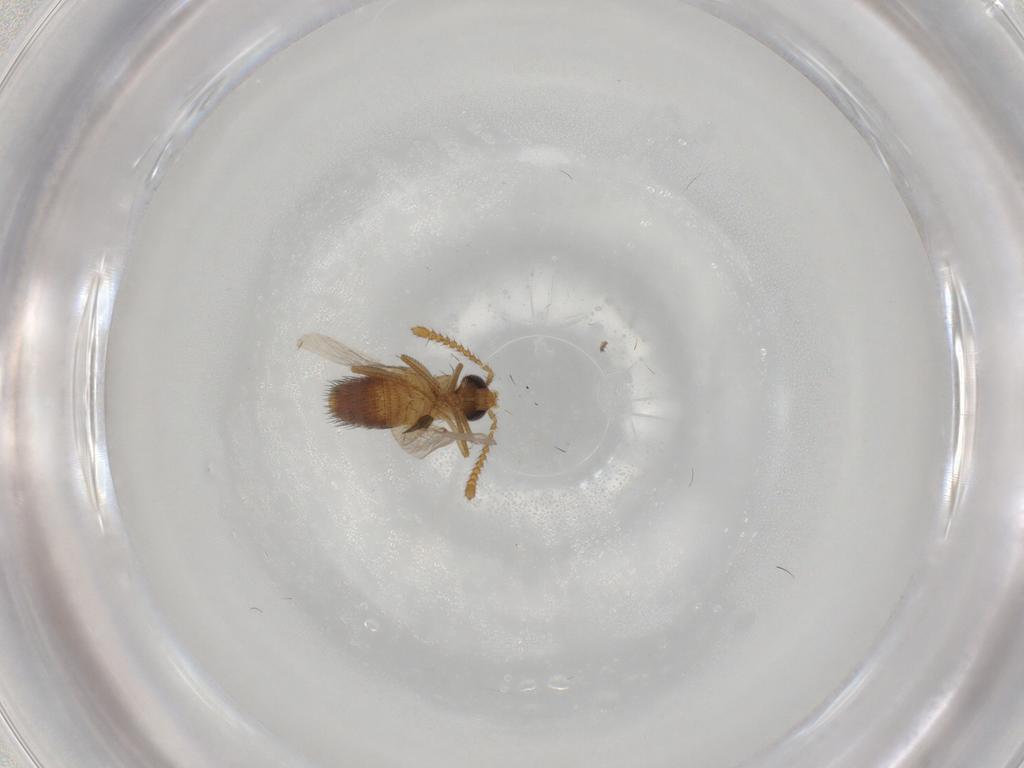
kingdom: Animalia
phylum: Arthropoda
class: Insecta
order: Coleoptera
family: Staphylinidae
